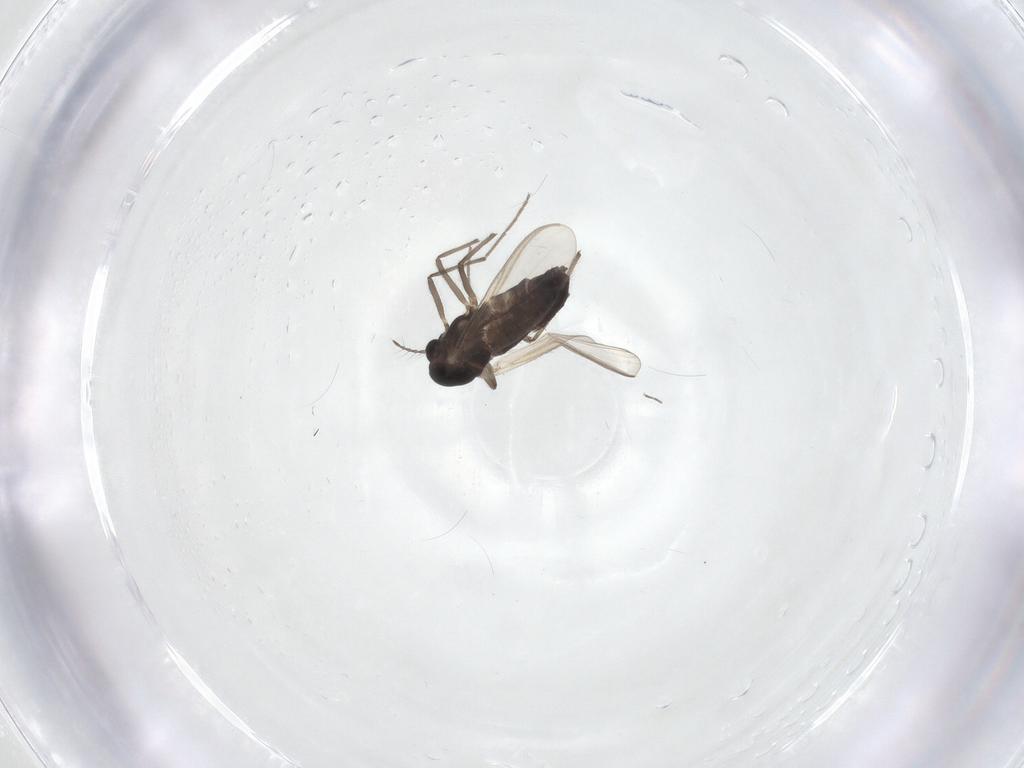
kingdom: Animalia
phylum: Arthropoda
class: Insecta
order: Diptera
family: Chironomidae
